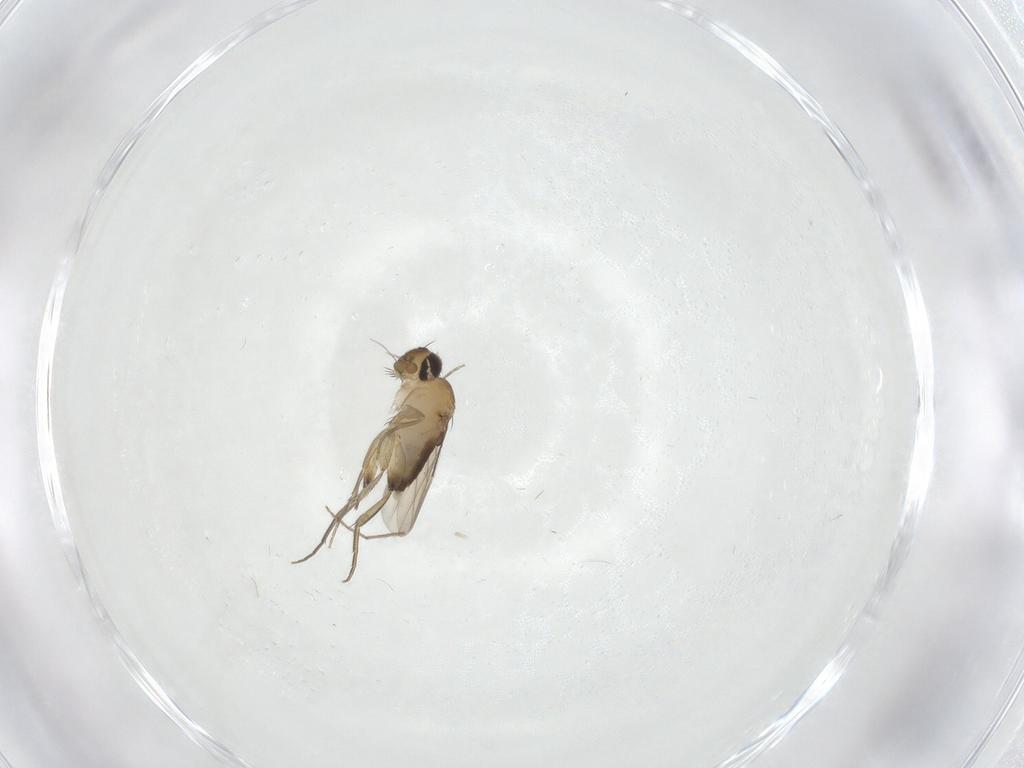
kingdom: Animalia
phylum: Arthropoda
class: Insecta
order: Diptera
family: Phoridae
